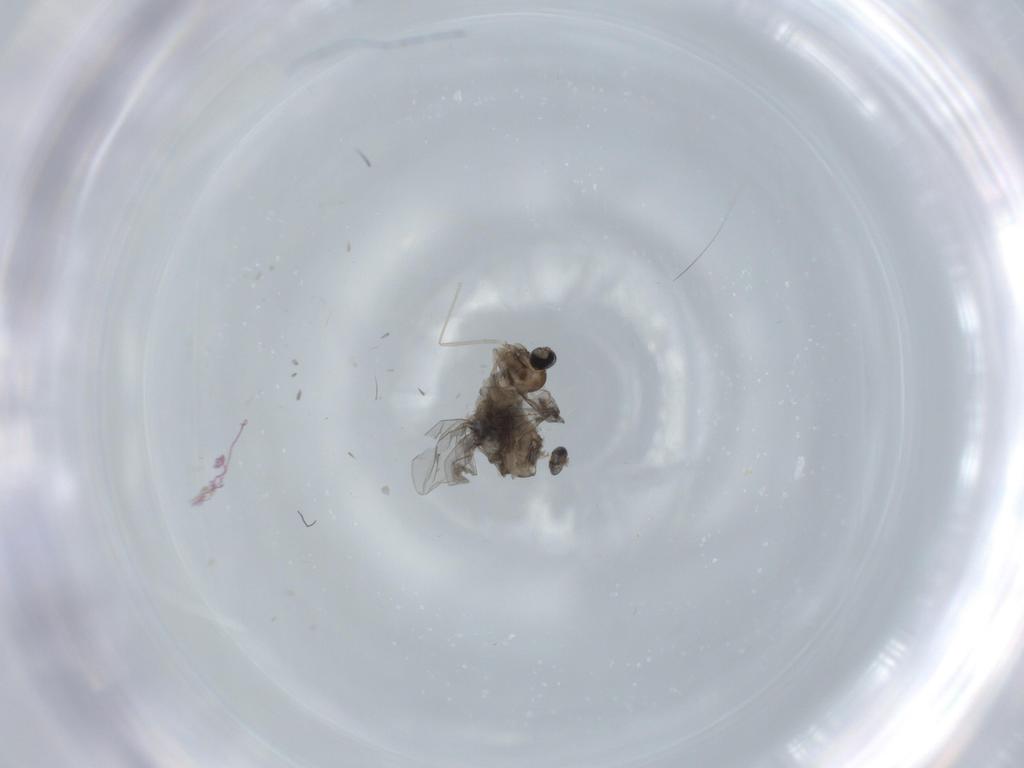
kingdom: Animalia
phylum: Arthropoda
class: Insecta
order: Diptera
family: Cecidomyiidae
